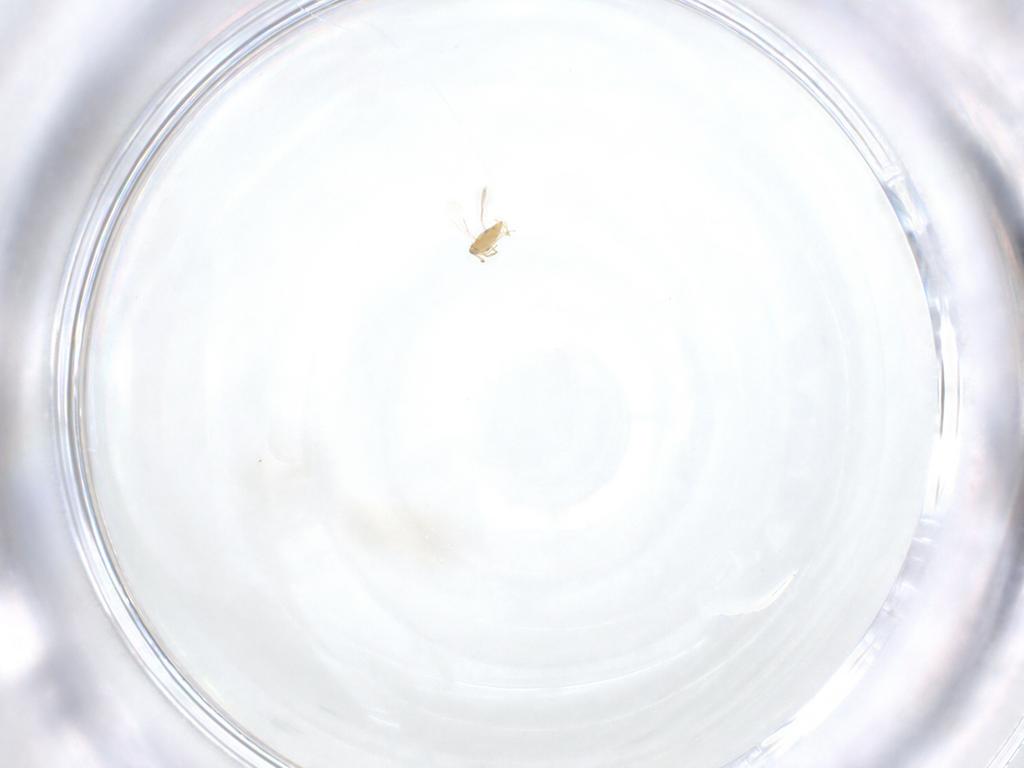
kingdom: Animalia
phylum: Arthropoda
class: Insecta
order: Hymenoptera
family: Aphelinidae
